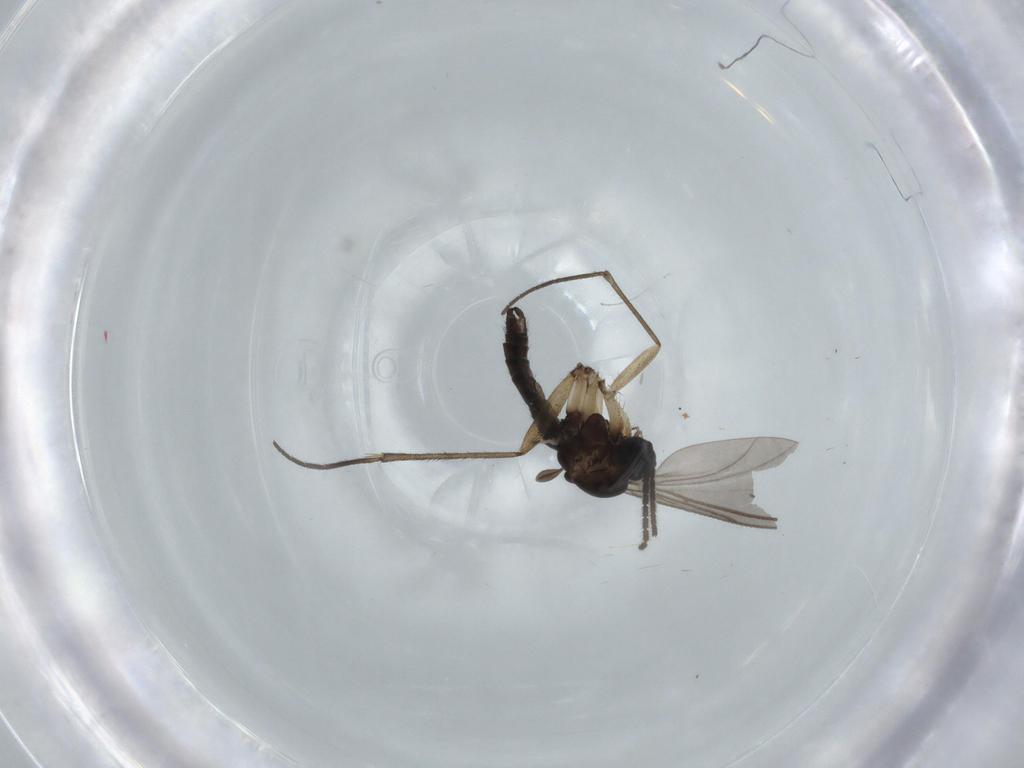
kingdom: Animalia
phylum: Arthropoda
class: Insecta
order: Diptera
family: Cecidomyiidae
